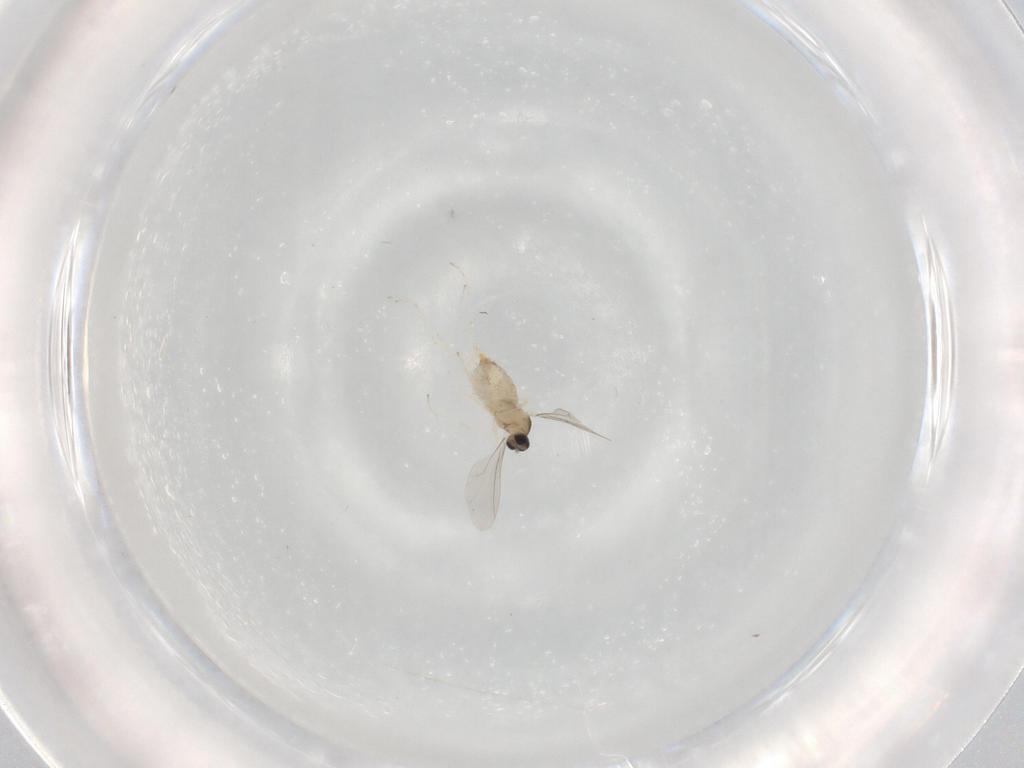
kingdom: Animalia
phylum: Arthropoda
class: Insecta
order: Diptera
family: Cecidomyiidae
